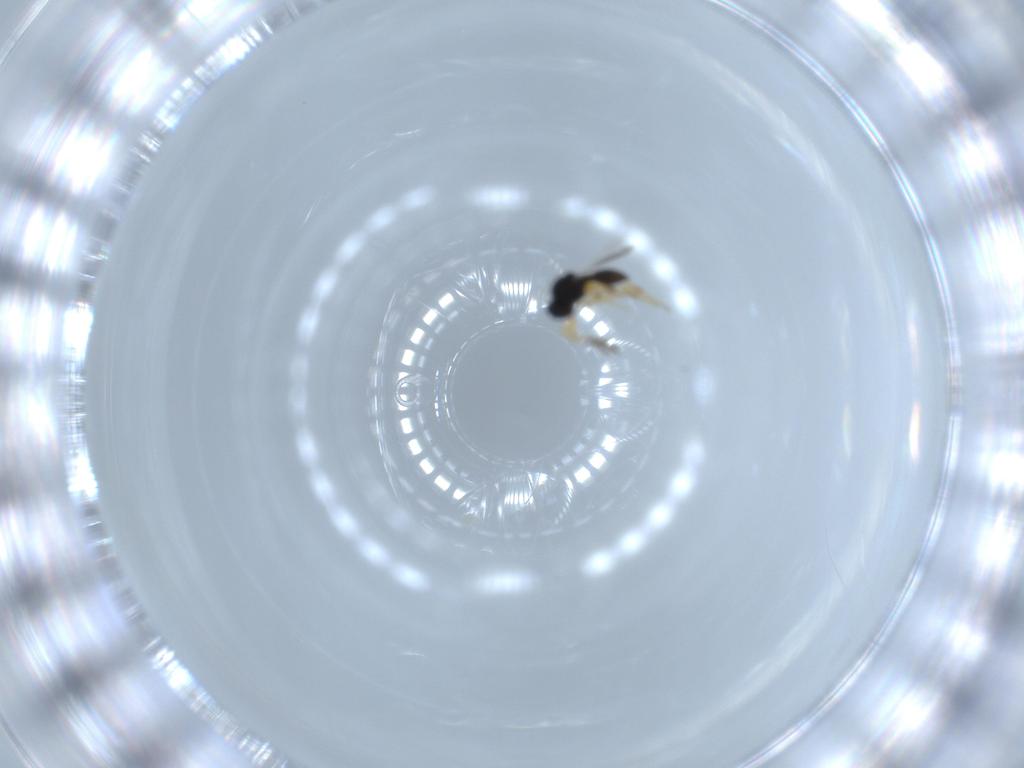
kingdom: Animalia
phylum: Arthropoda
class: Insecta
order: Hymenoptera
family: Platygastridae
